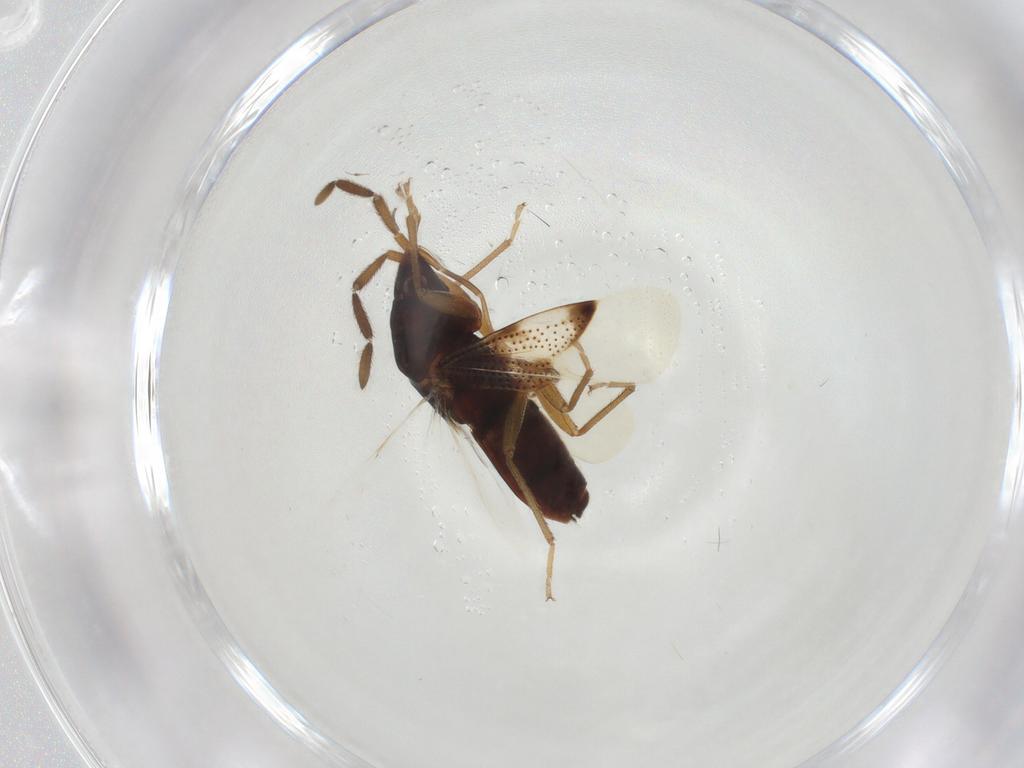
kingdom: Animalia
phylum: Arthropoda
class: Insecta
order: Hemiptera
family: Rhyparochromidae
